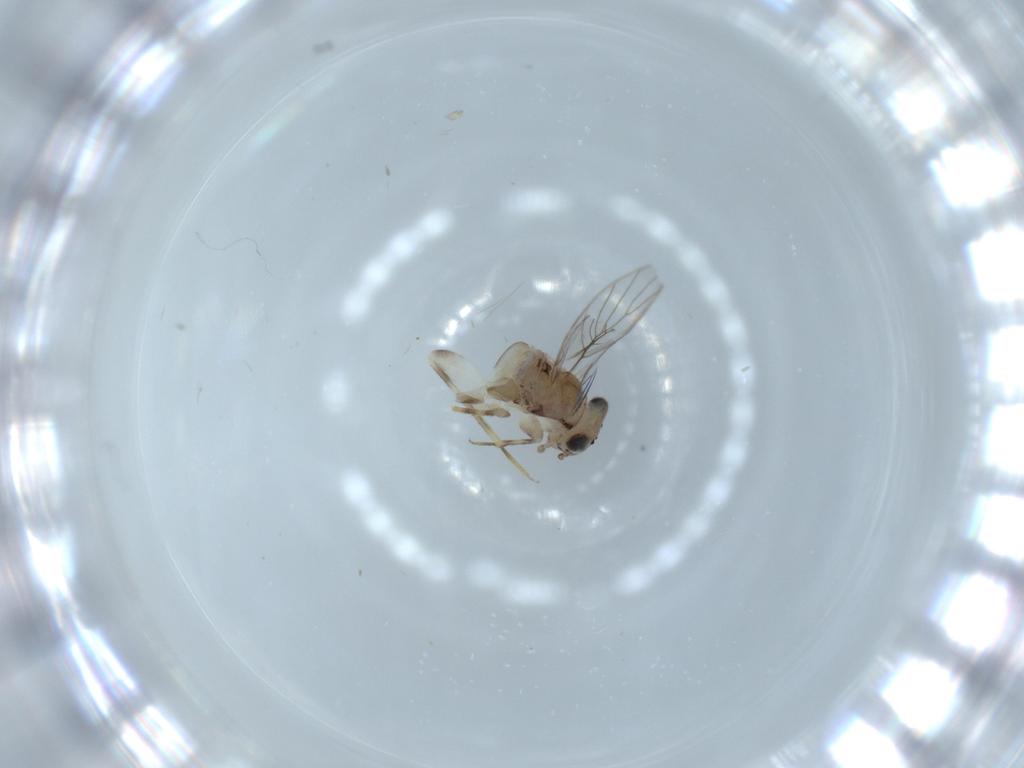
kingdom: Animalia
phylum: Arthropoda
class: Insecta
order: Psocodea
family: Lepidopsocidae
